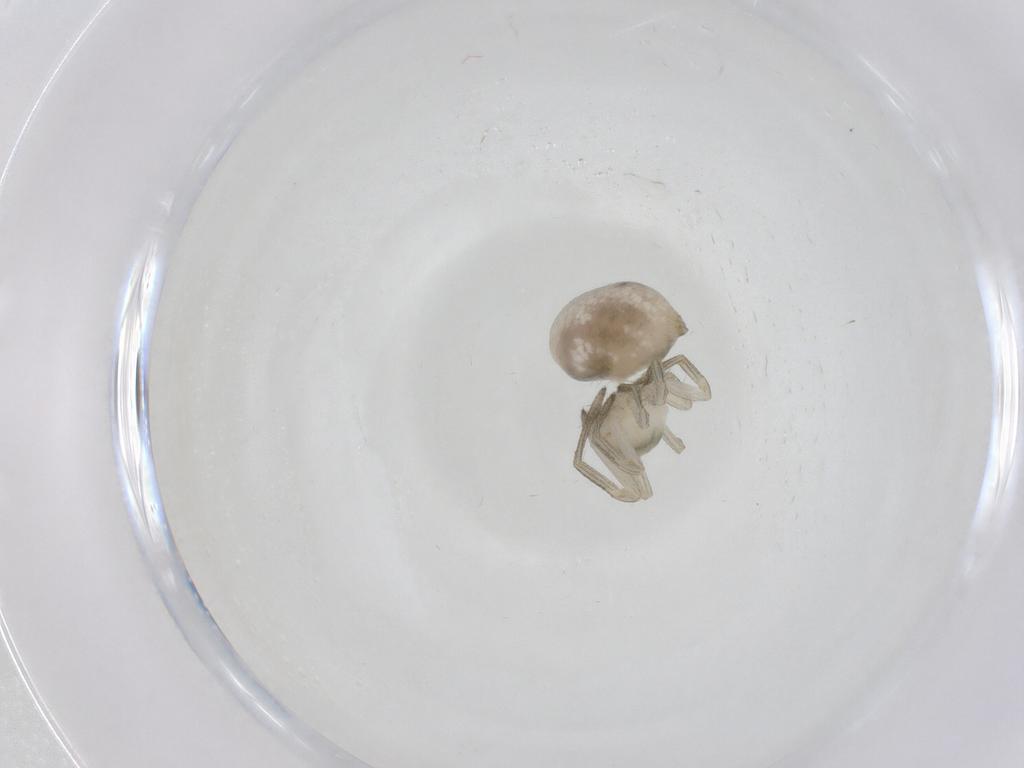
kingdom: Animalia
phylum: Arthropoda
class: Arachnida
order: Araneae
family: Theridiidae
